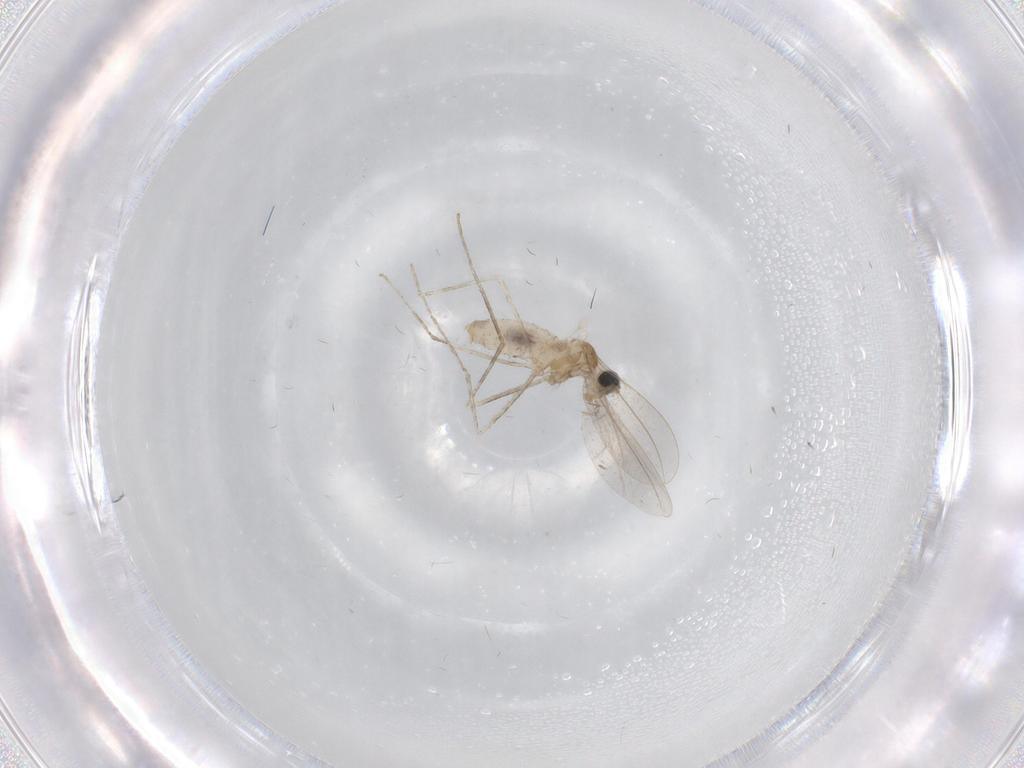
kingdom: Animalia
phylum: Arthropoda
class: Insecta
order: Diptera
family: Cecidomyiidae
